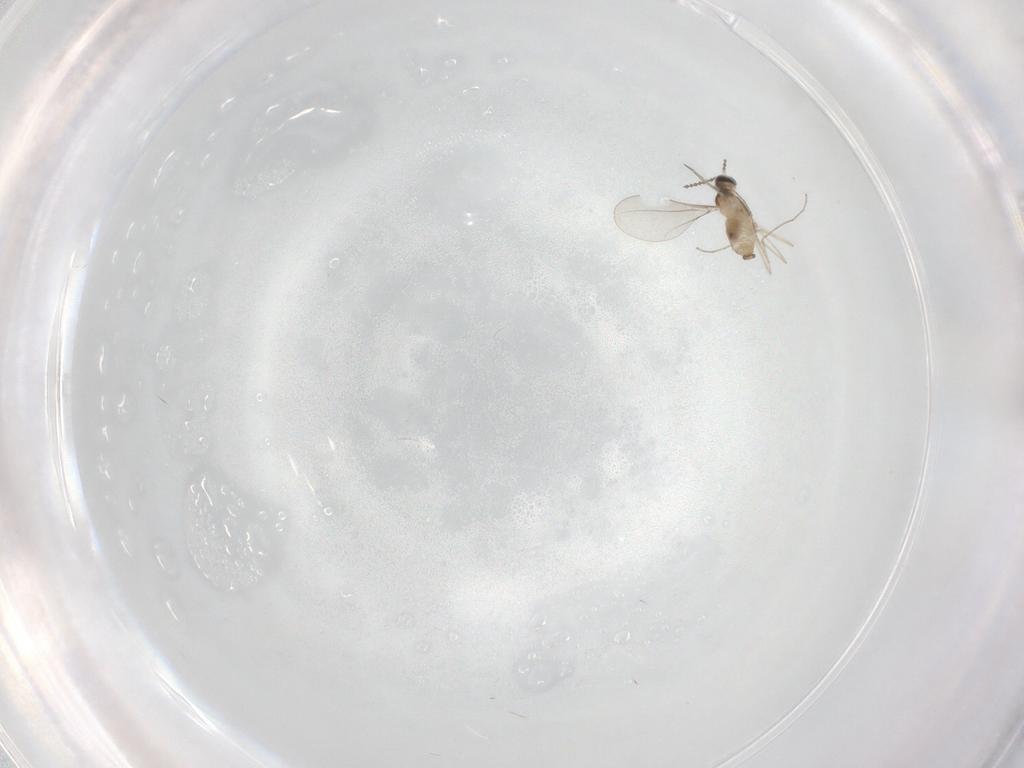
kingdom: Animalia
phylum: Arthropoda
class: Insecta
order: Diptera
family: Cecidomyiidae
